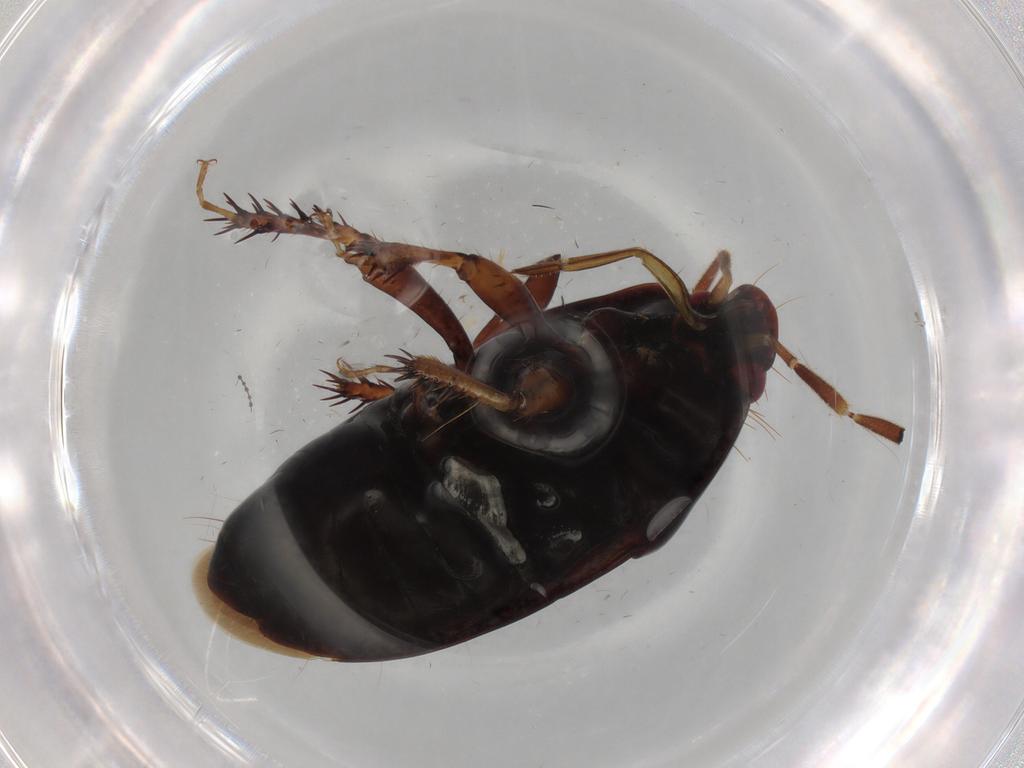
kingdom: Animalia
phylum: Arthropoda
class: Insecta
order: Hemiptera
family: Cydnidae
